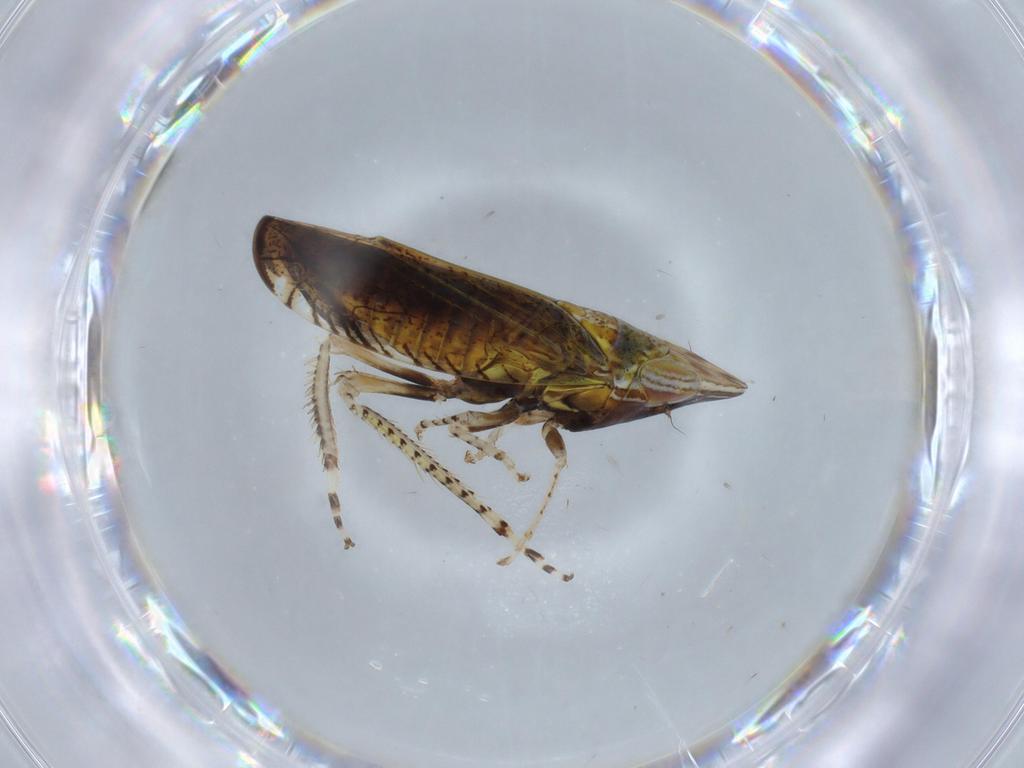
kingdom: Animalia
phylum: Arthropoda
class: Insecta
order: Hemiptera
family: Cicadellidae
